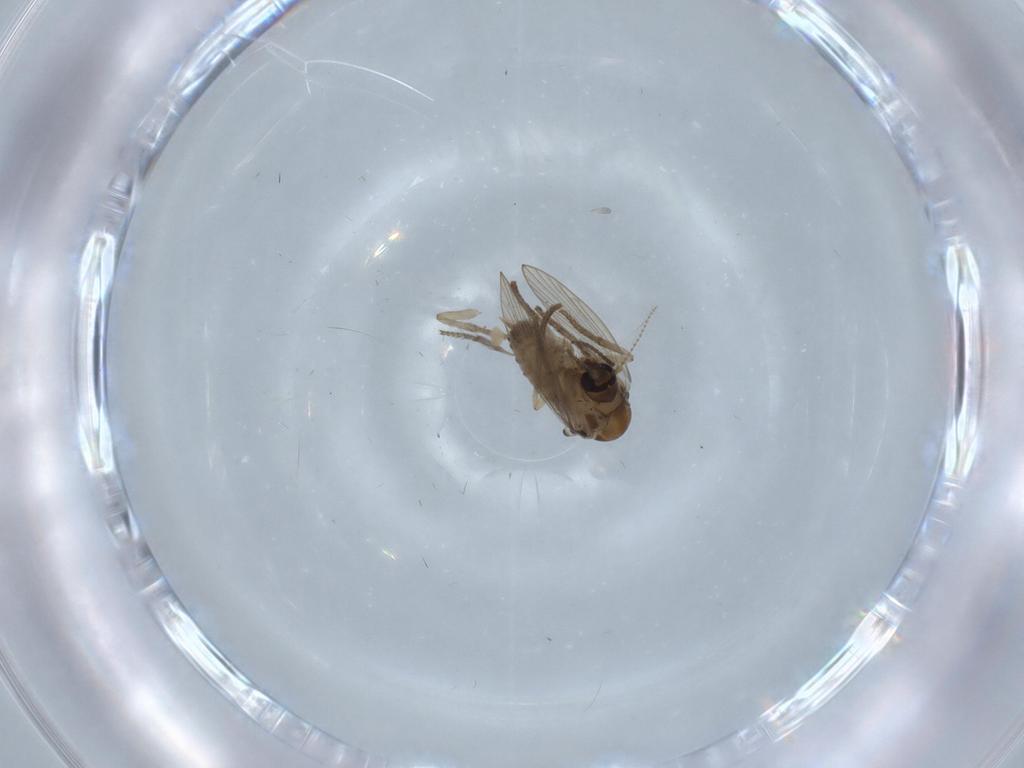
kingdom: Animalia
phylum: Arthropoda
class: Insecta
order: Diptera
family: Sciaridae
